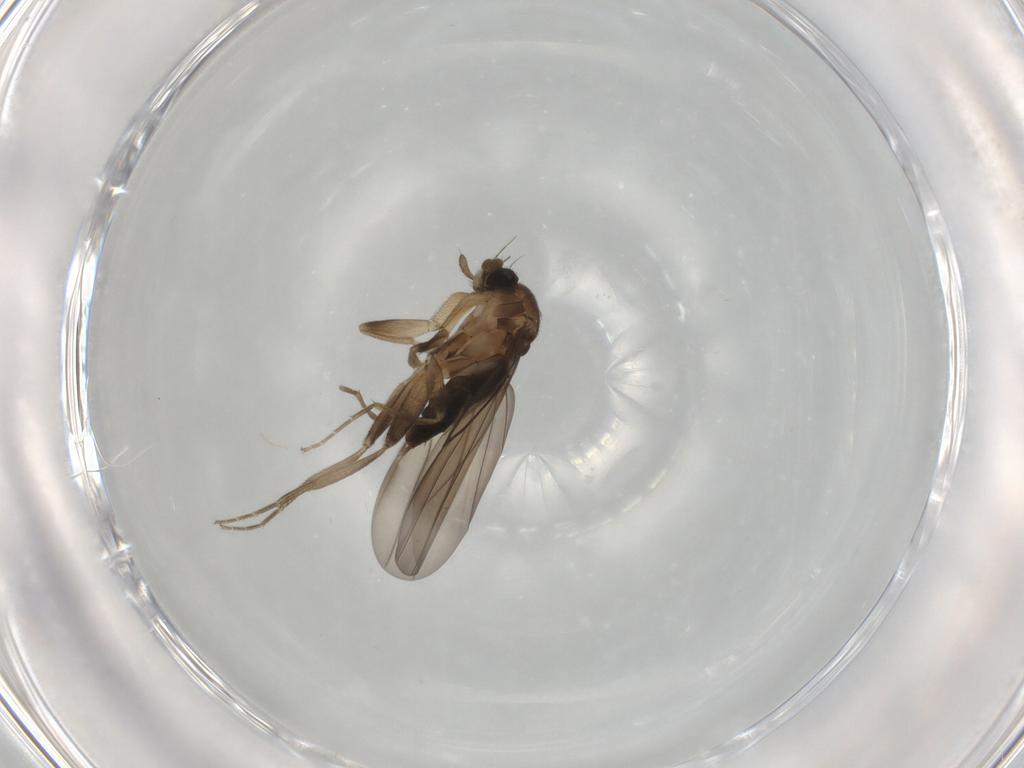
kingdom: Animalia
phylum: Arthropoda
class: Insecta
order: Diptera
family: Phoridae
